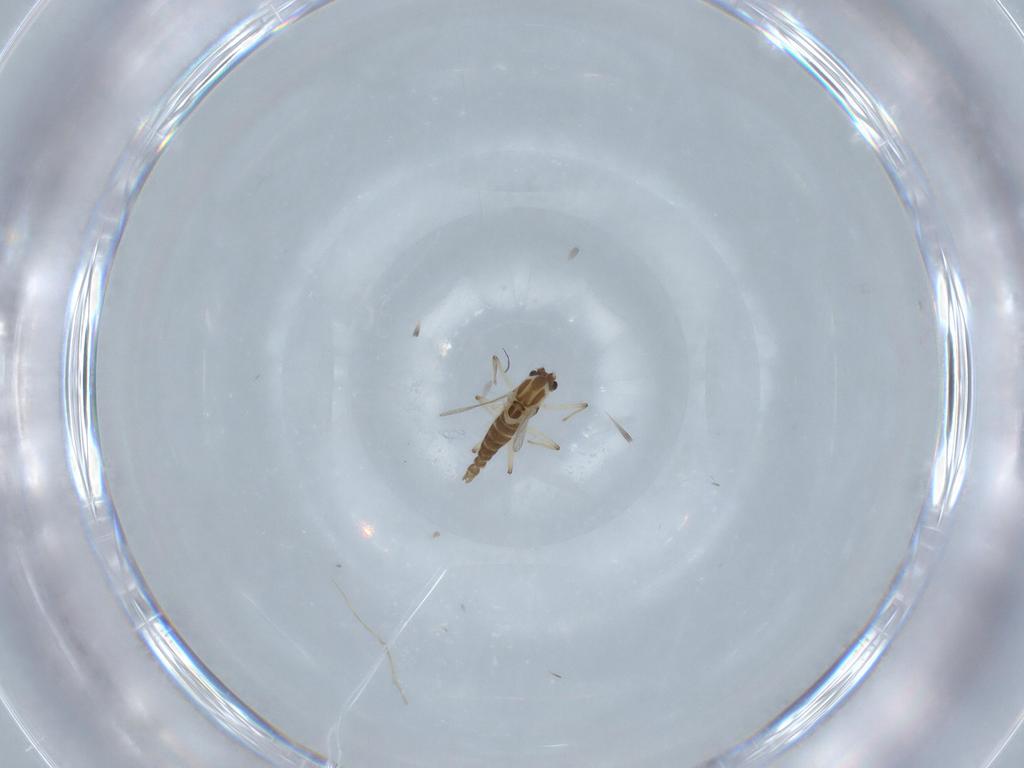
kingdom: Animalia
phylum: Arthropoda
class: Insecta
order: Diptera
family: Chironomidae
